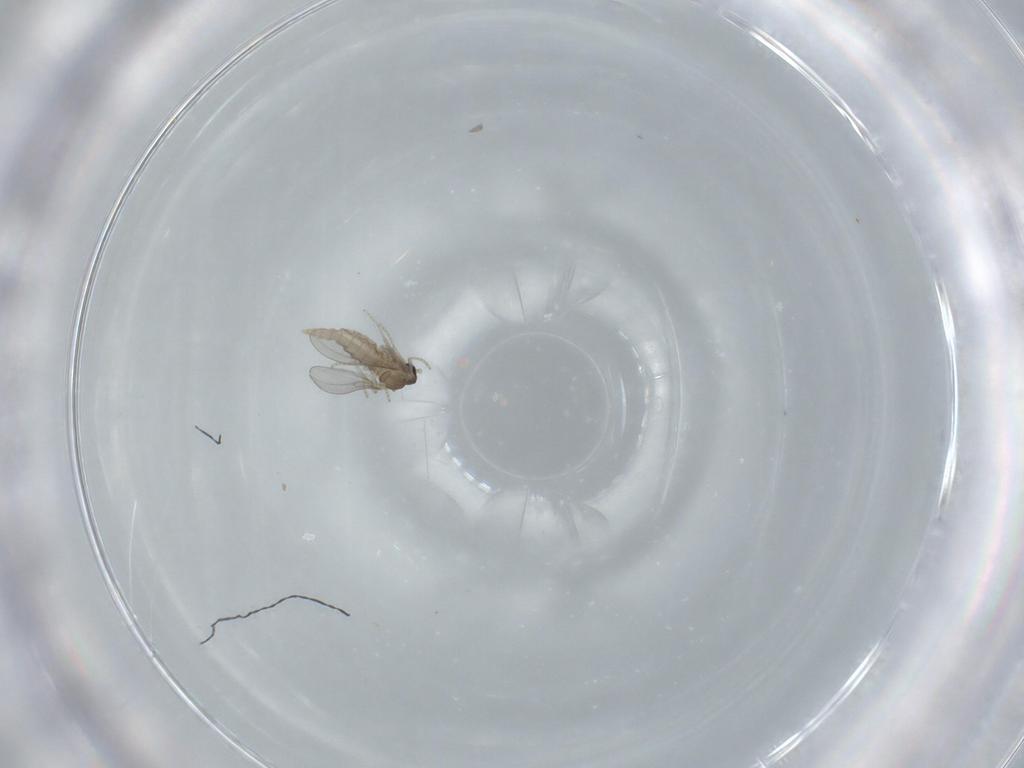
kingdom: Animalia
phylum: Arthropoda
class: Insecta
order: Diptera
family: Cecidomyiidae
